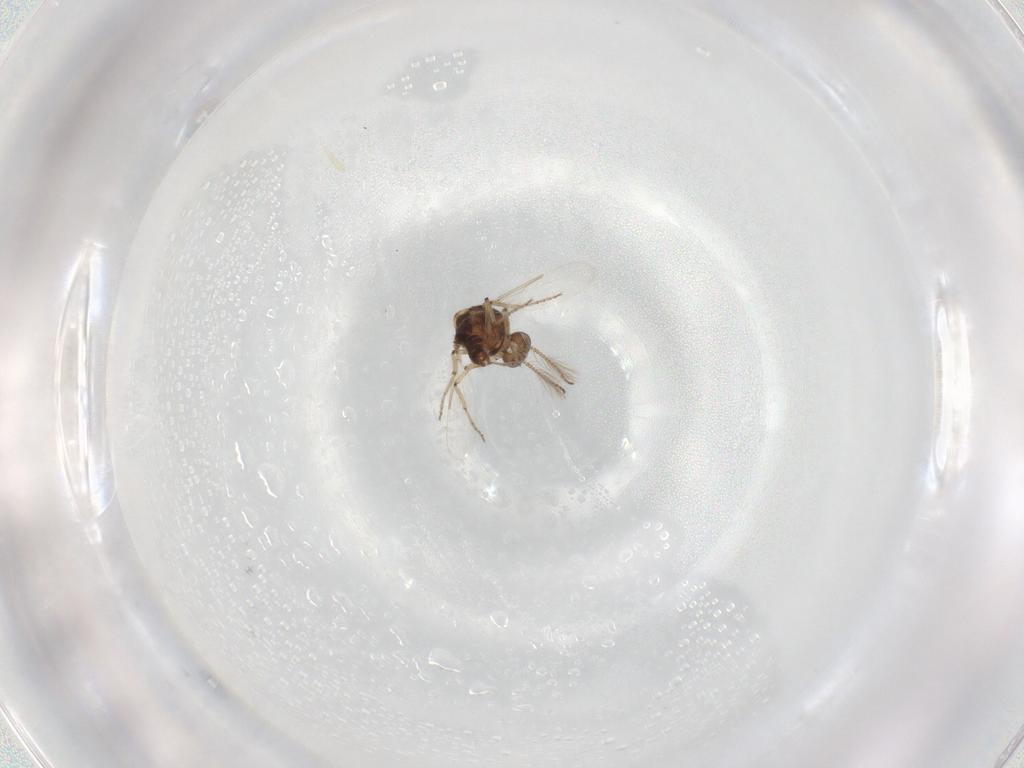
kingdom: Animalia
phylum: Arthropoda
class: Insecta
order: Diptera
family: Ceratopogonidae
